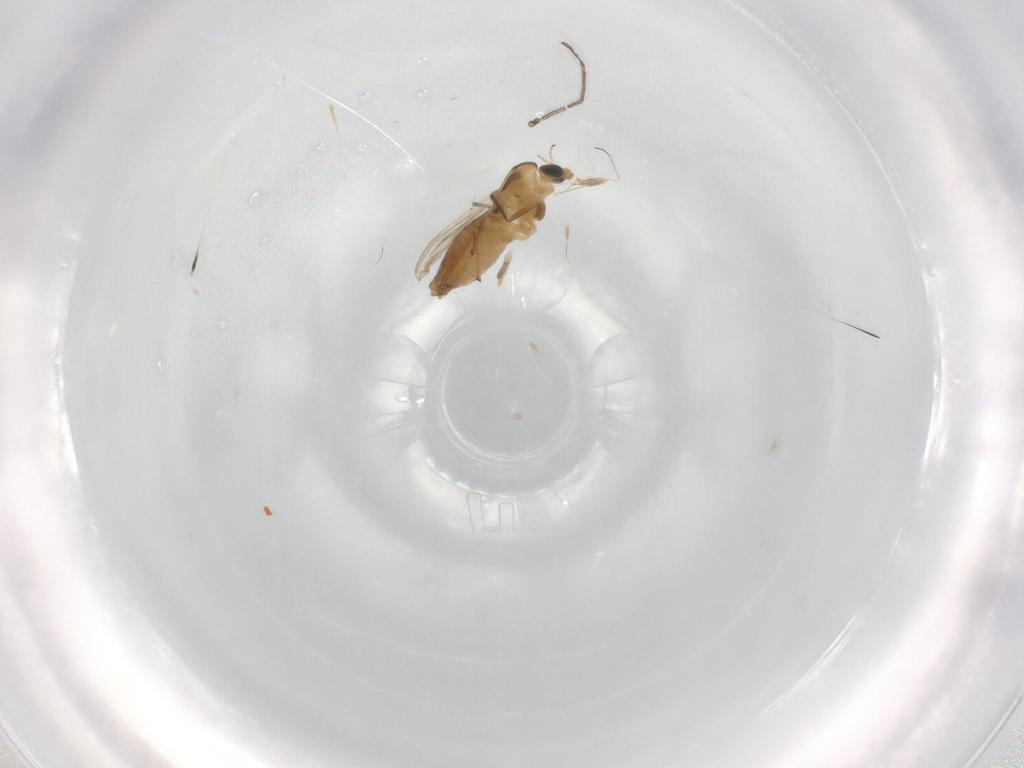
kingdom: Animalia
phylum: Arthropoda
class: Insecta
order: Diptera
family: Chironomidae
